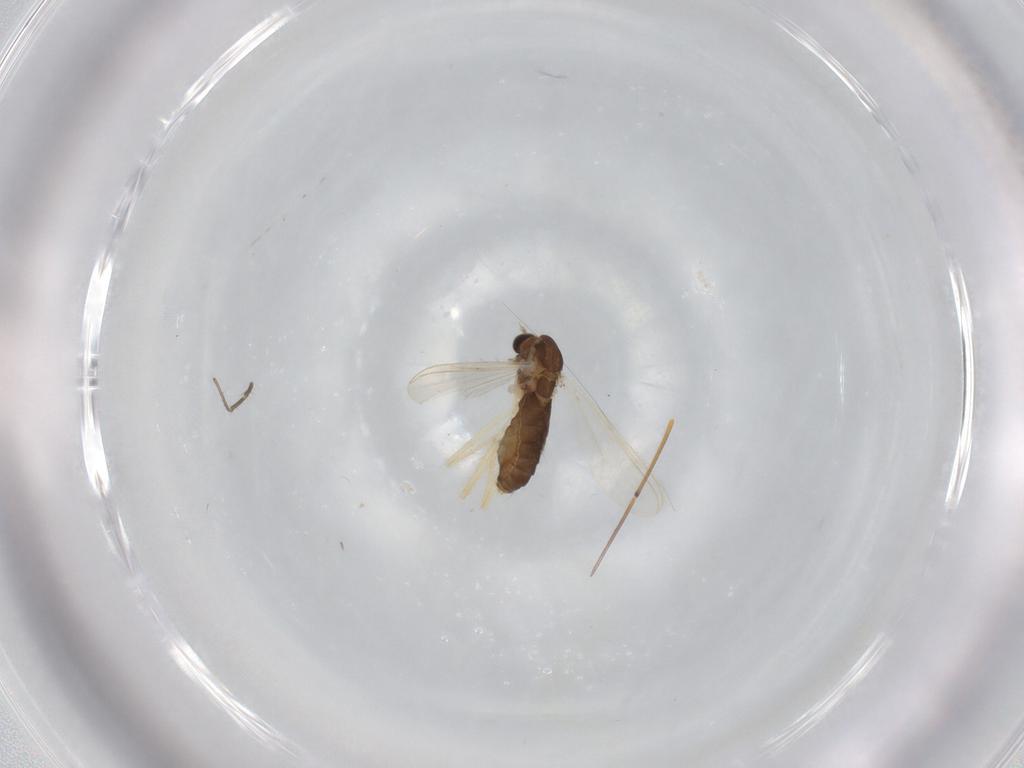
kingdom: Animalia
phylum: Arthropoda
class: Insecta
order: Diptera
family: Chironomidae
